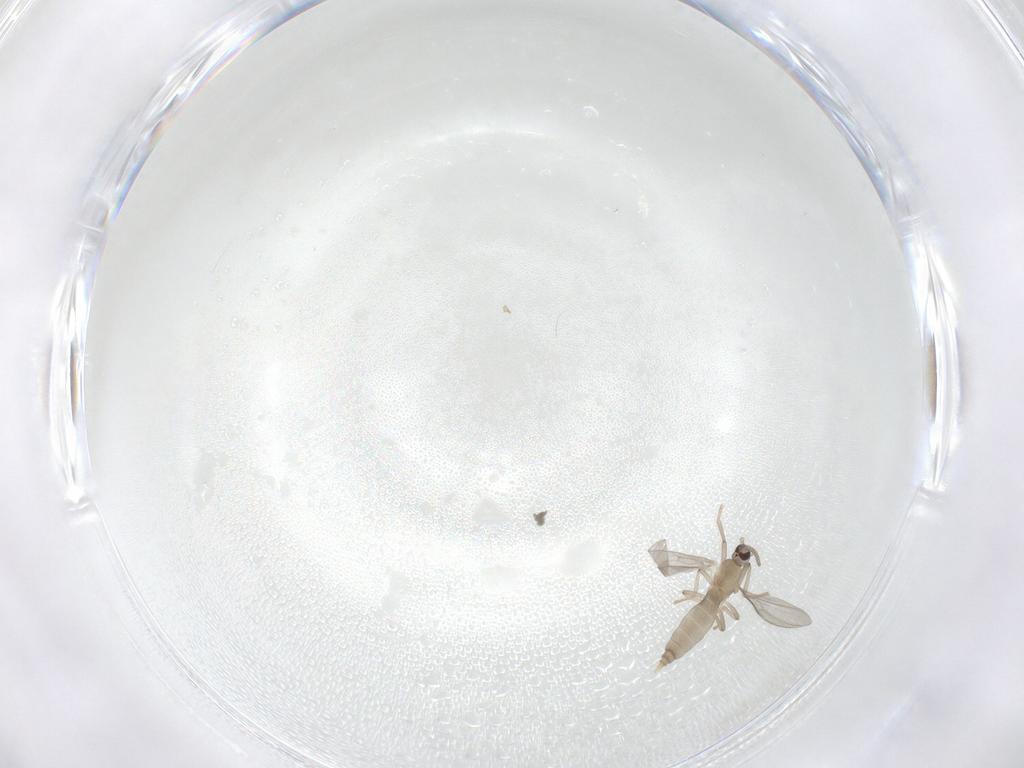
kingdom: Animalia
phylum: Arthropoda
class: Insecta
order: Diptera
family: Cecidomyiidae
